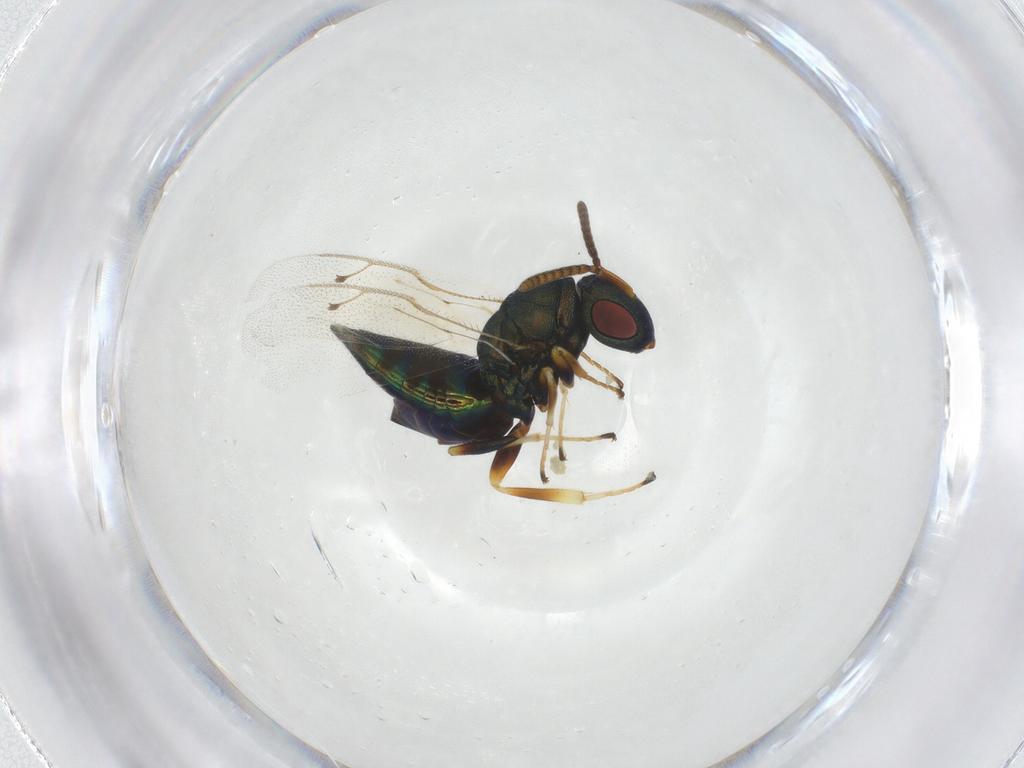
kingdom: Animalia
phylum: Arthropoda
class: Insecta
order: Hymenoptera
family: Pteromalidae
